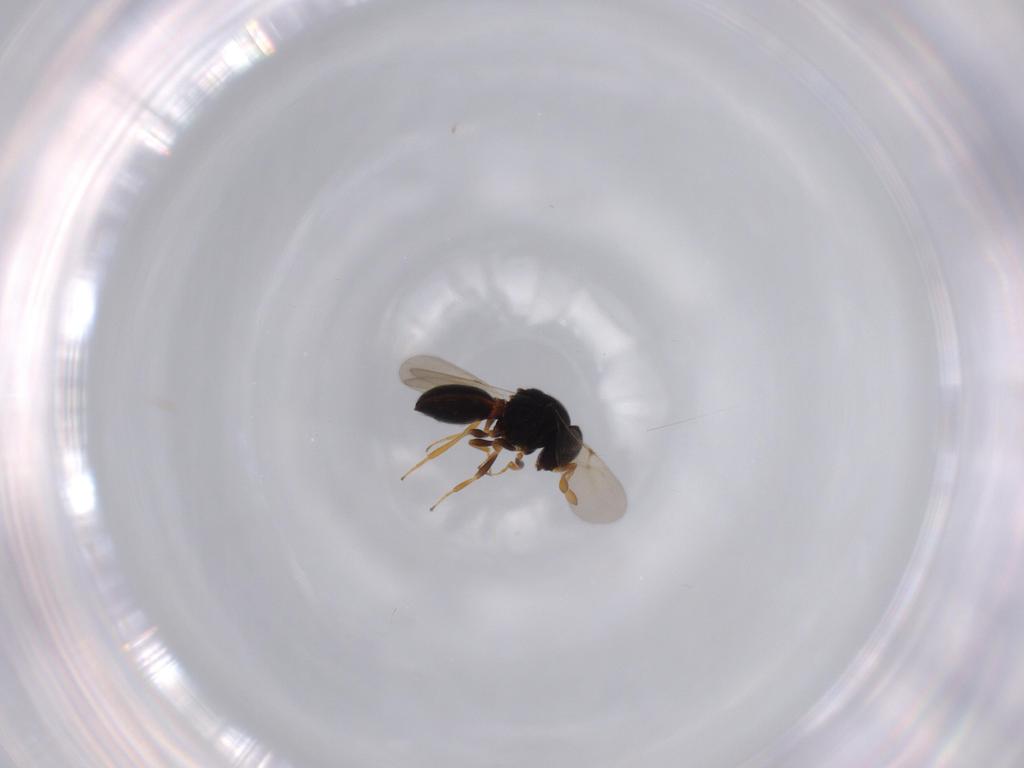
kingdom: Animalia
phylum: Arthropoda
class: Insecta
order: Hymenoptera
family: Scelionidae
